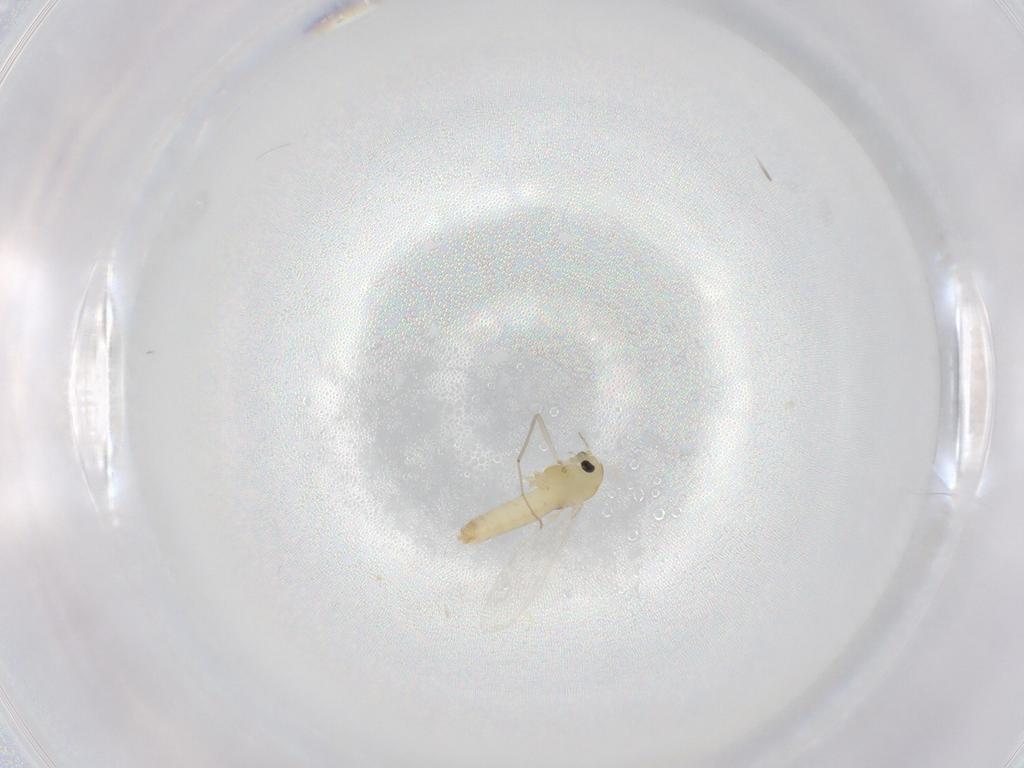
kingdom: Animalia
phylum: Arthropoda
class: Insecta
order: Diptera
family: Chironomidae
